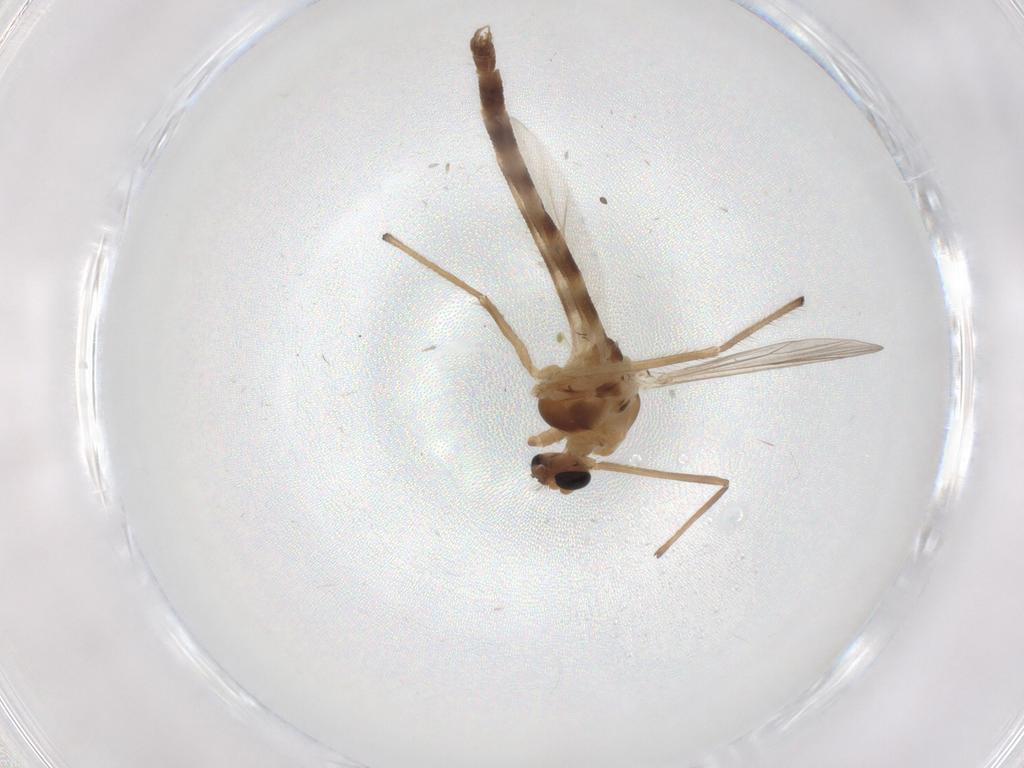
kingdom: Animalia
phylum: Arthropoda
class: Insecta
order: Diptera
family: Chironomidae
